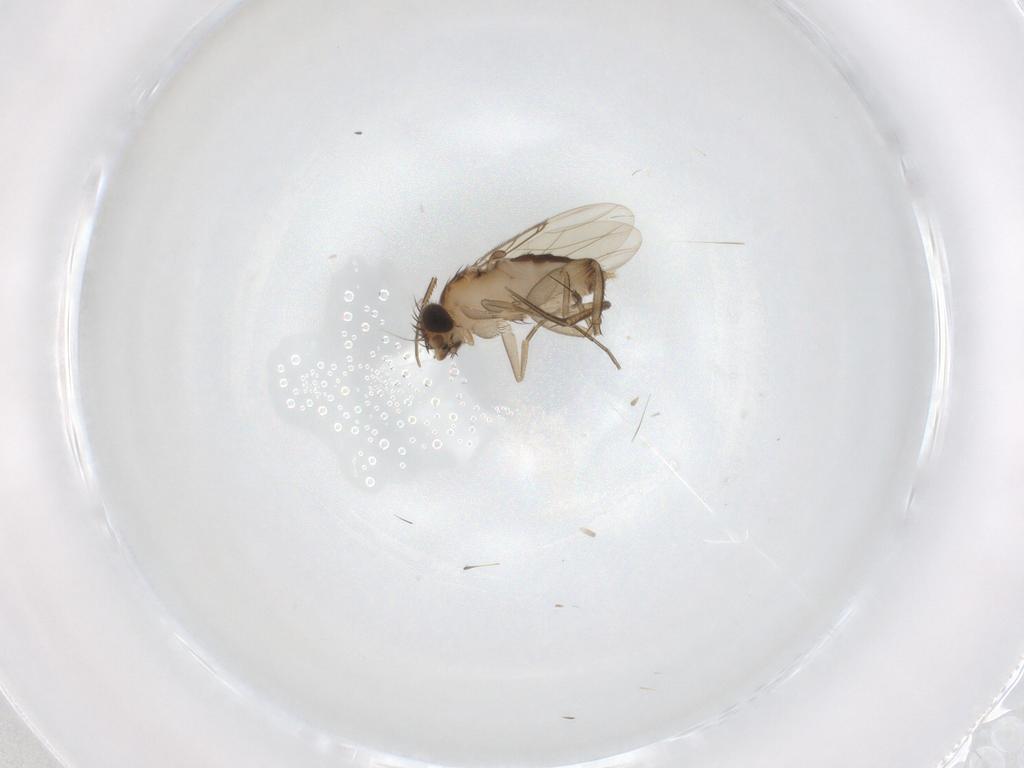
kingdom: Animalia
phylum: Arthropoda
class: Insecta
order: Diptera
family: Phoridae
